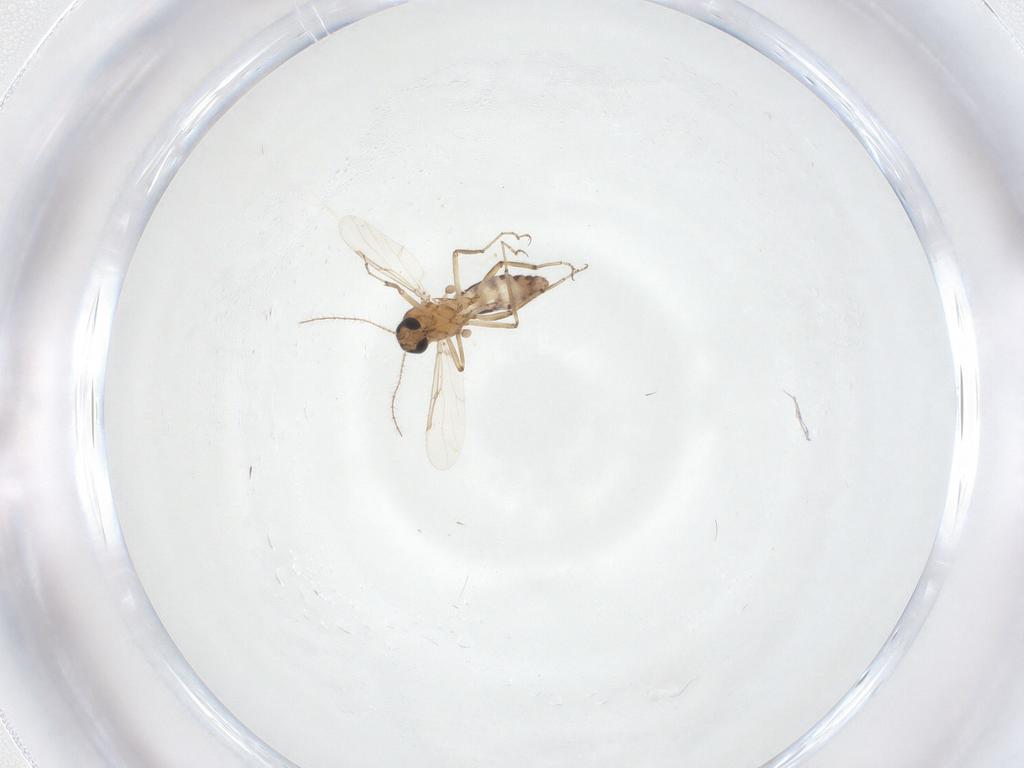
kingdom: Animalia
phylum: Arthropoda
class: Insecta
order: Diptera
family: Ceratopogonidae
